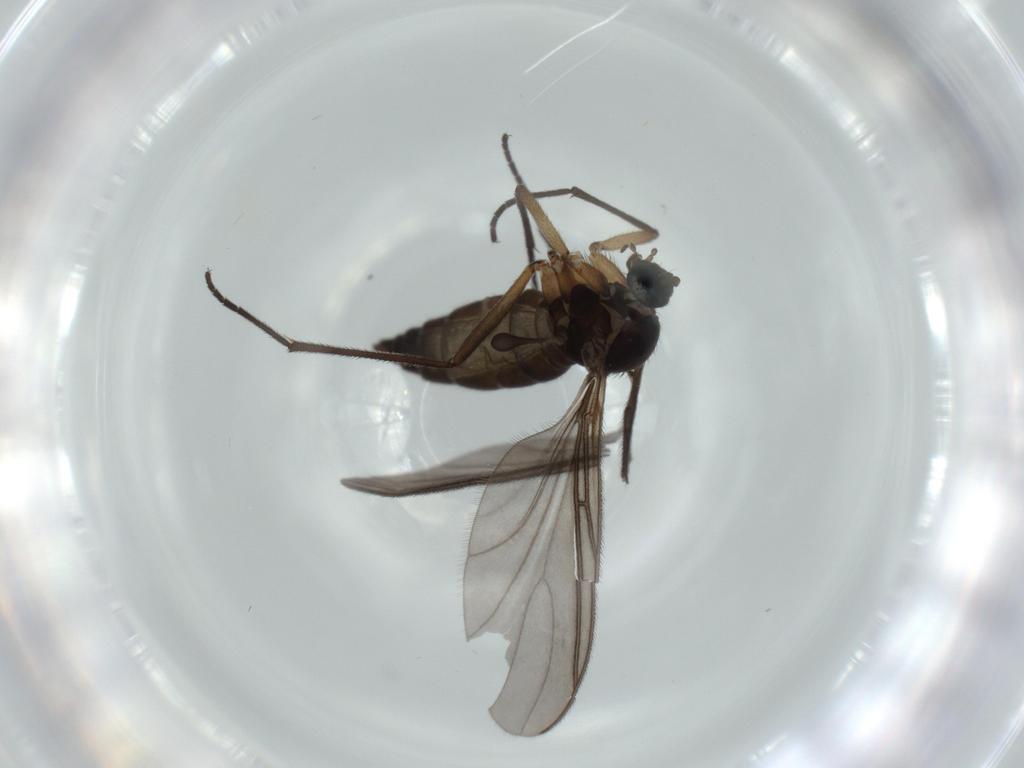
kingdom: Animalia
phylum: Arthropoda
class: Insecta
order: Diptera
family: Sciaridae
